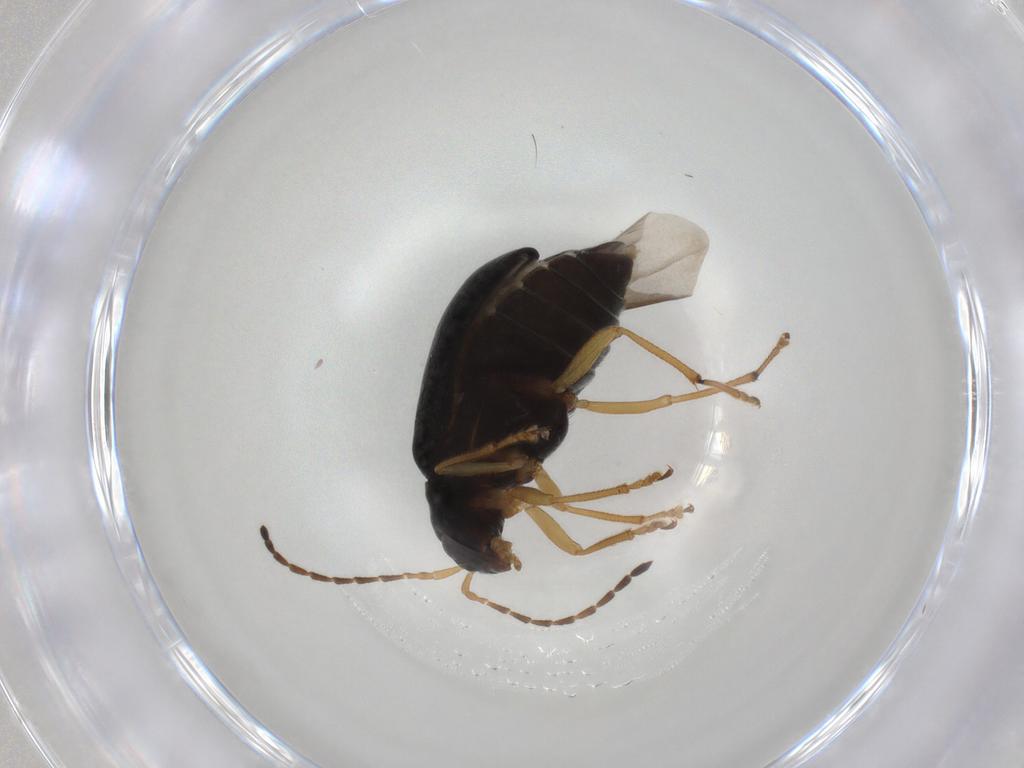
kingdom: Animalia
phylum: Arthropoda
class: Insecta
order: Coleoptera
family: Chrysomelidae
